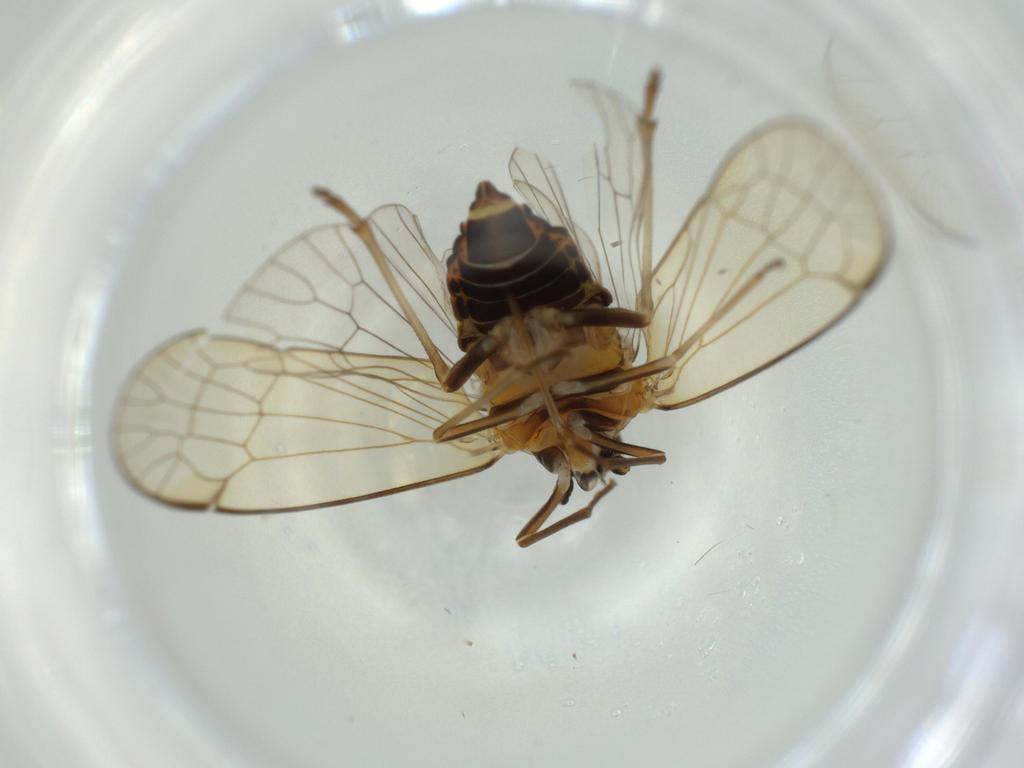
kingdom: Animalia
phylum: Arthropoda
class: Insecta
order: Hemiptera
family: Kinnaridae
